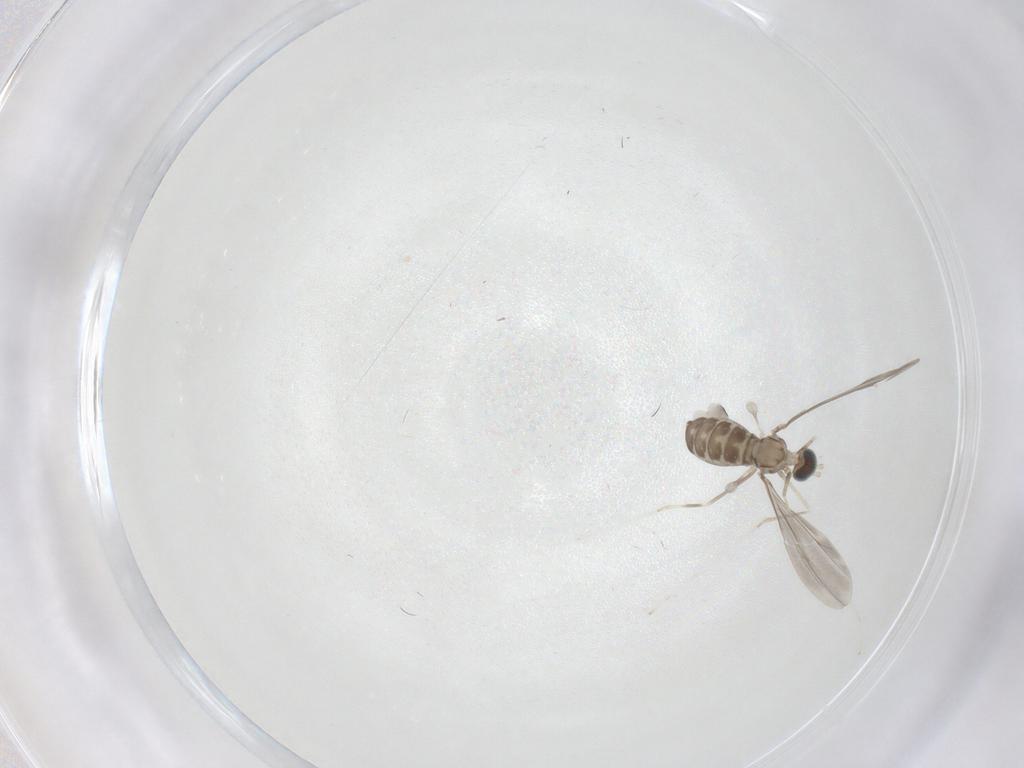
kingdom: Animalia
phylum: Arthropoda
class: Insecta
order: Diptera
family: Cecidomyiidae
